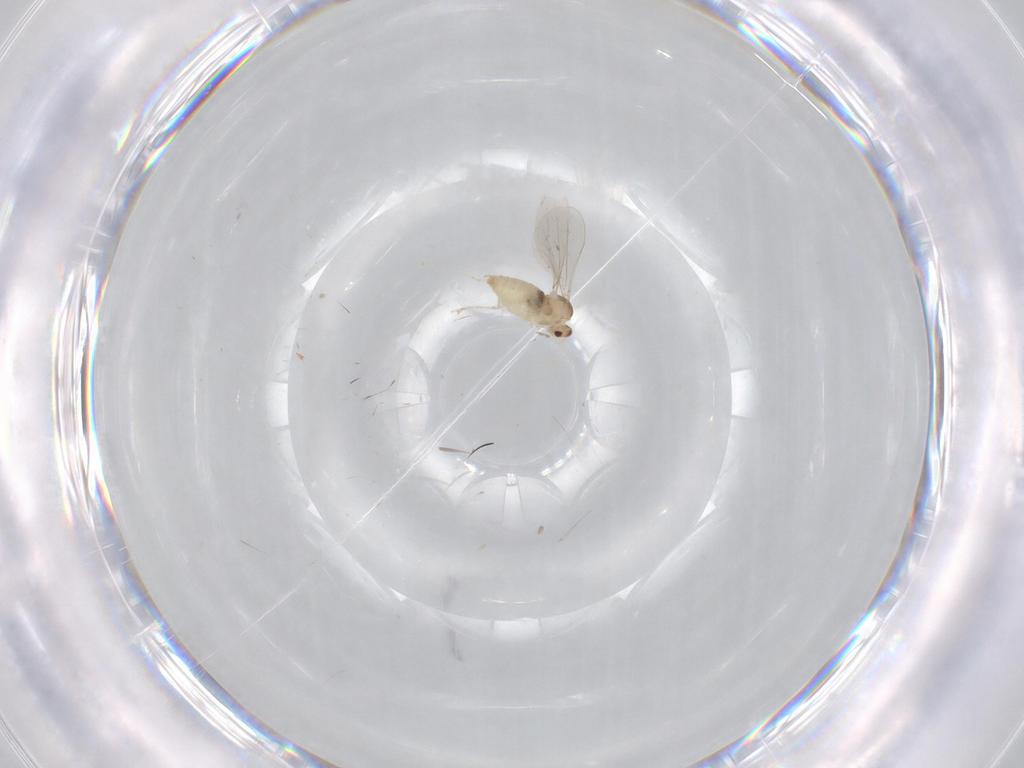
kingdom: Animalia
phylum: Arthropoda
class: Insecta
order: Diptera
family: Cecidomyiidae
